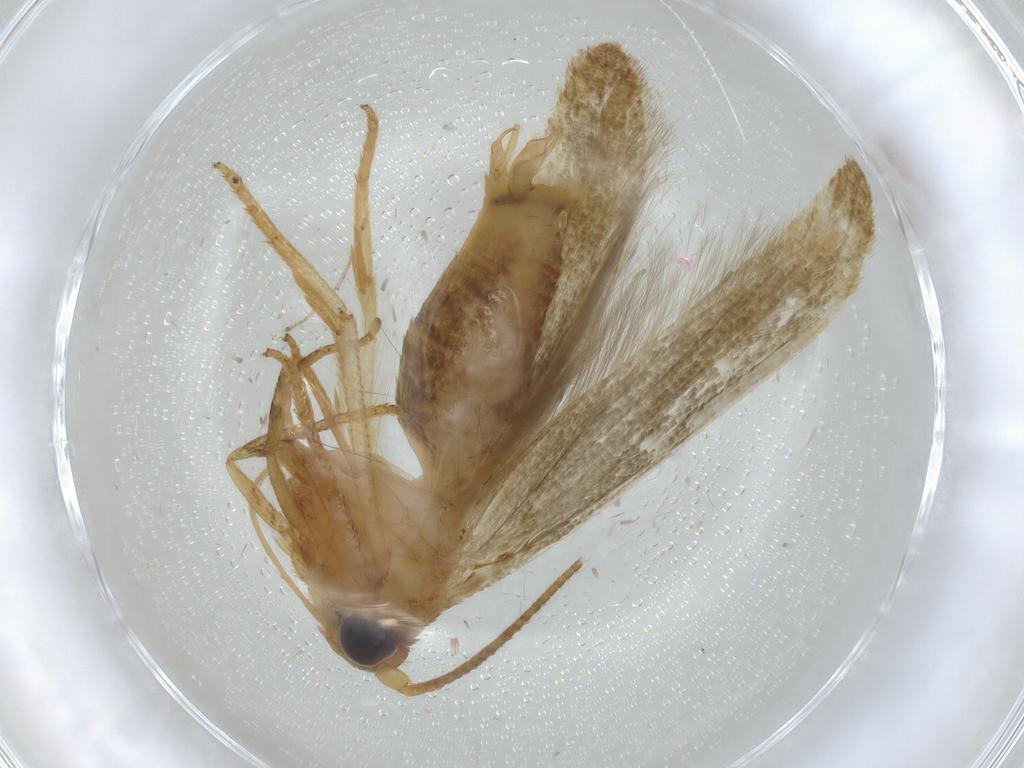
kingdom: Animalia
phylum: Arthropoda
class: Insecta
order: Lepidoptera
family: Blastobasidae
